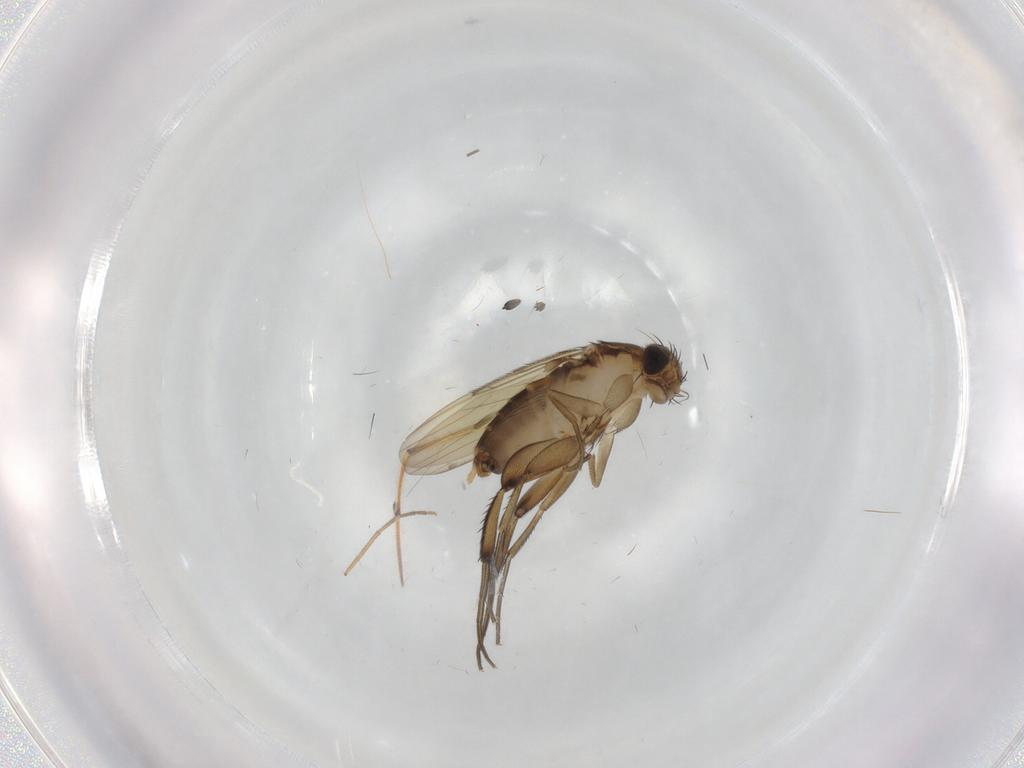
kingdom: Animalia
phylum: Arthropoda
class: Insecta
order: Diptera
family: Phoridae
